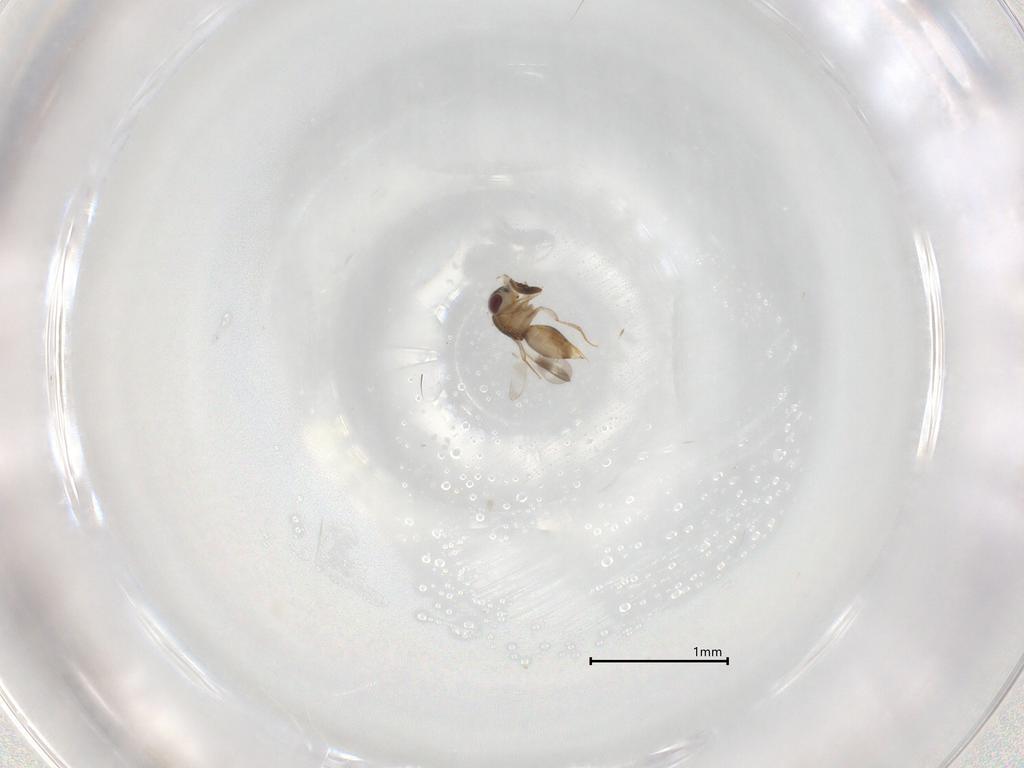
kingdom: Animalia
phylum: Arthropoda
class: Insecta
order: Hymenoptera
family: Ceraphronidae
